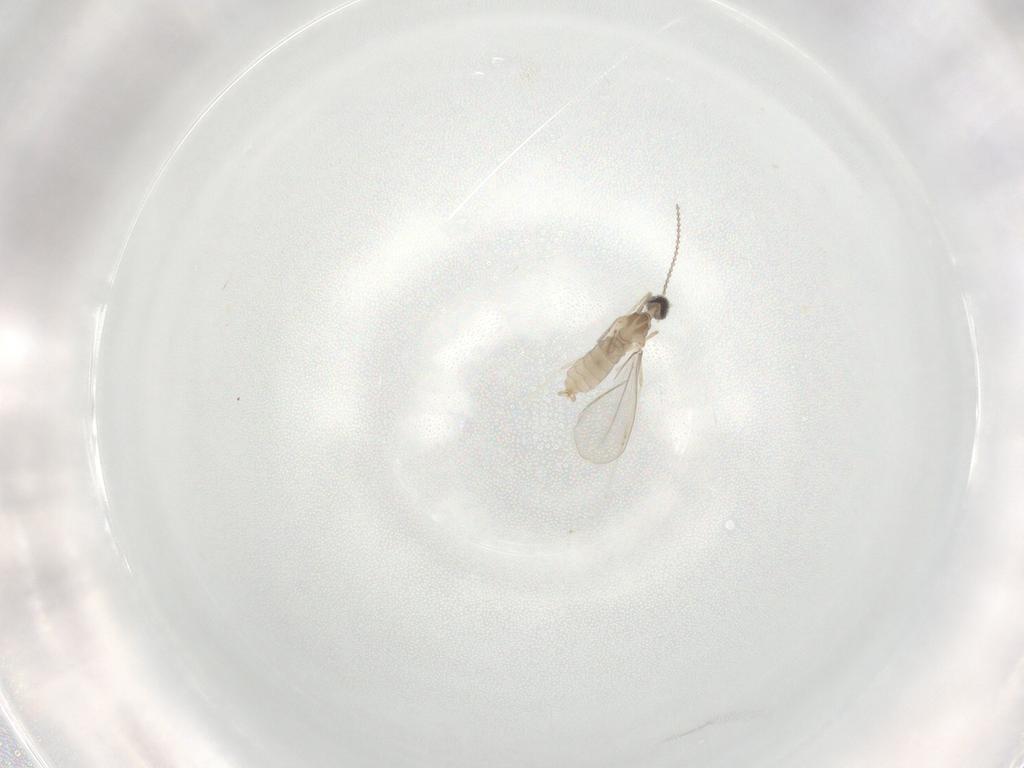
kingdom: Animalia
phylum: Arthropoda
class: Insecta
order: Diptera
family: Cecidomyiidae
